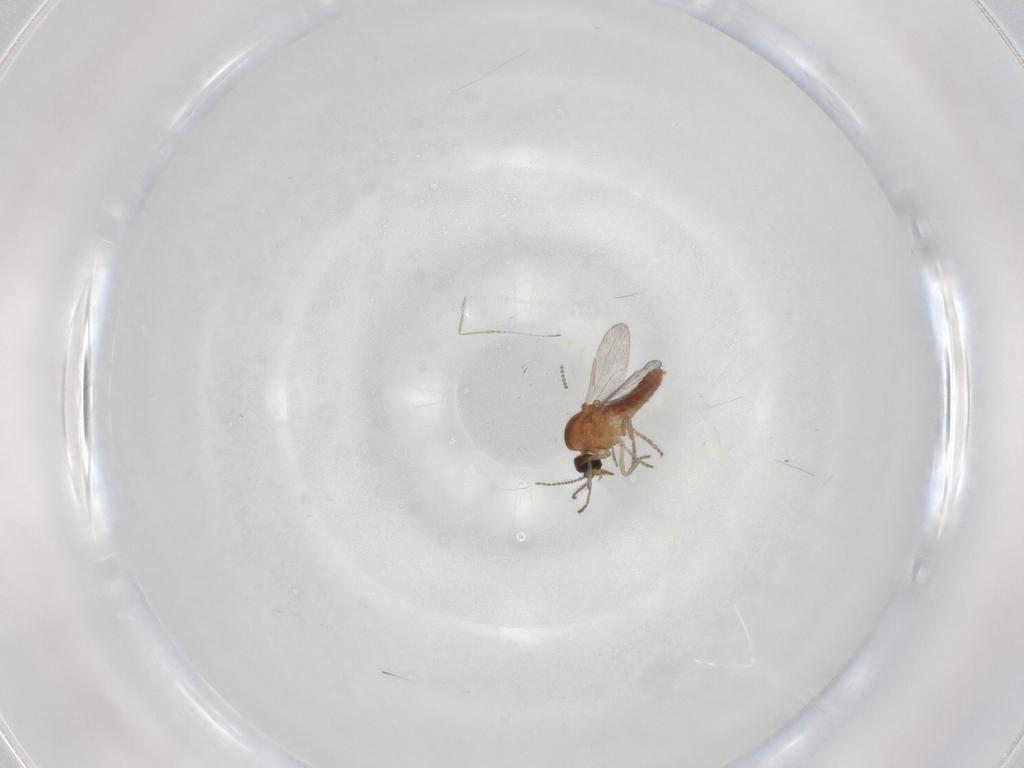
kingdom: Animalia
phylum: Arthropoda
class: Insecta
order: Diptera
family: Ceratopogonidae
